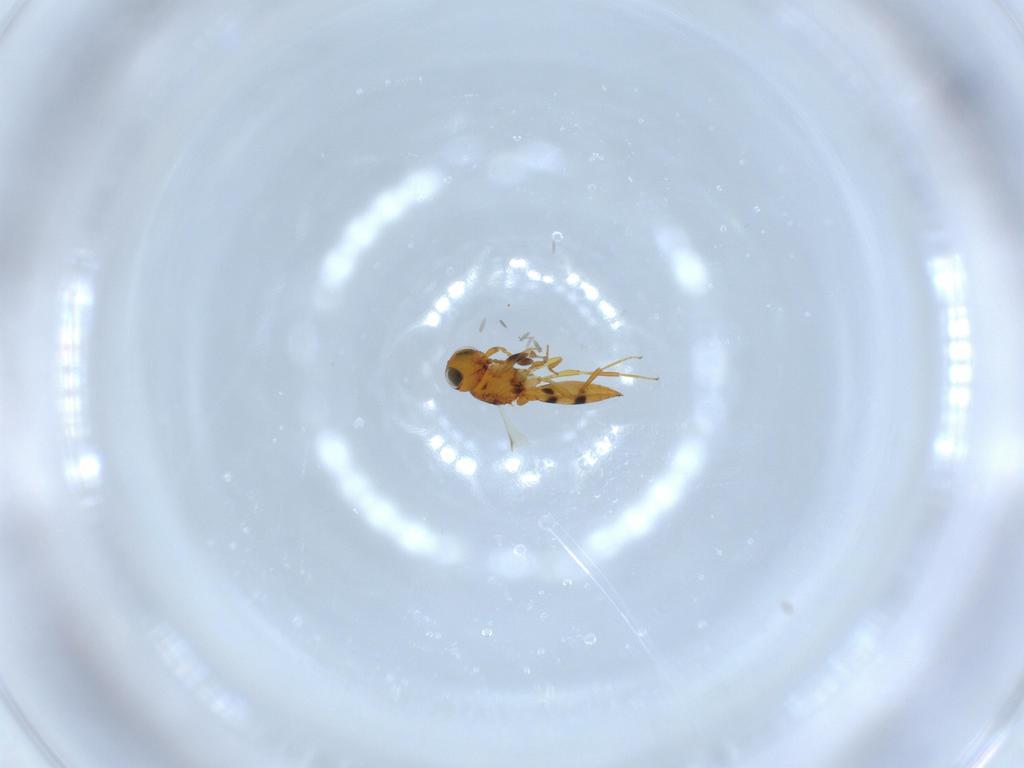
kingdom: Animalia
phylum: Arthropoda
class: Insecta
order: Hymenoptera
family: Scelionidae
